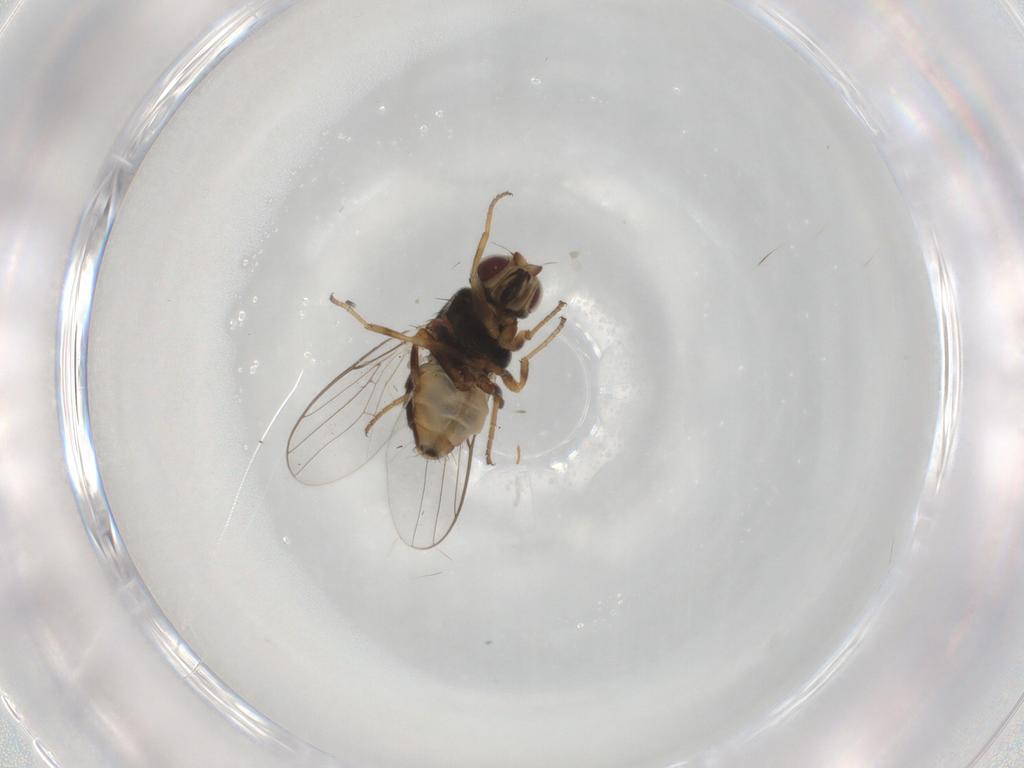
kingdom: Animalia
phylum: Arthropoda
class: Insecta
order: Diptera
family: Chloropidae
